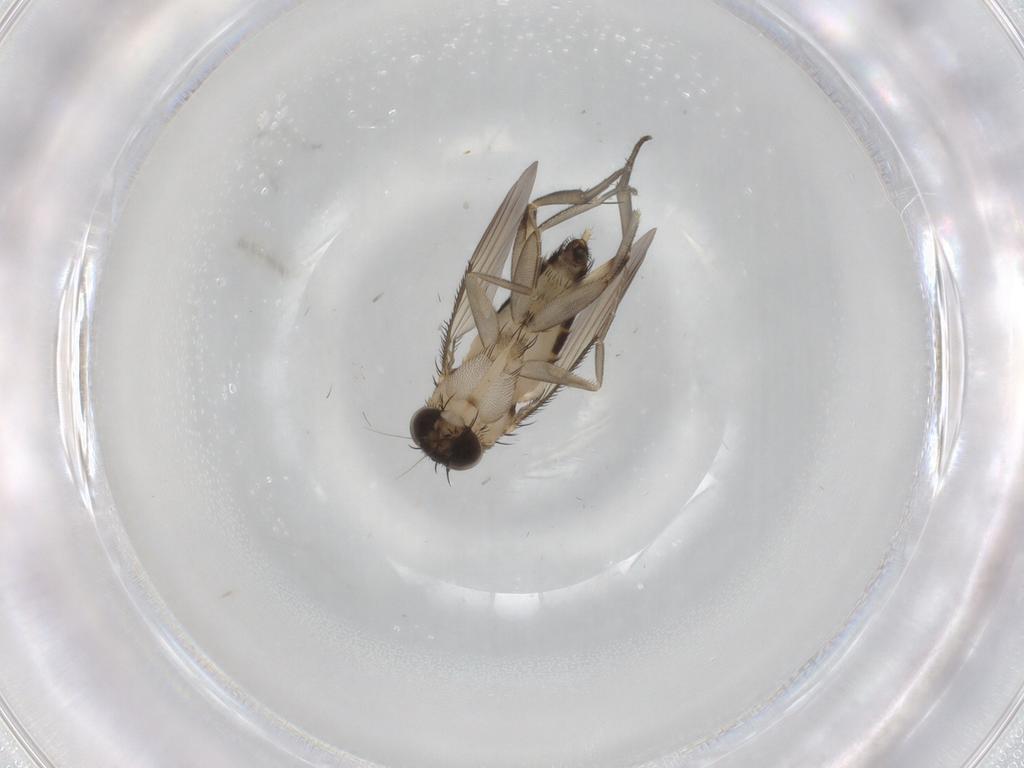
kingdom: Animalia
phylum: Arthropoda
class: Insecta
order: Diptera
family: Phoridae
